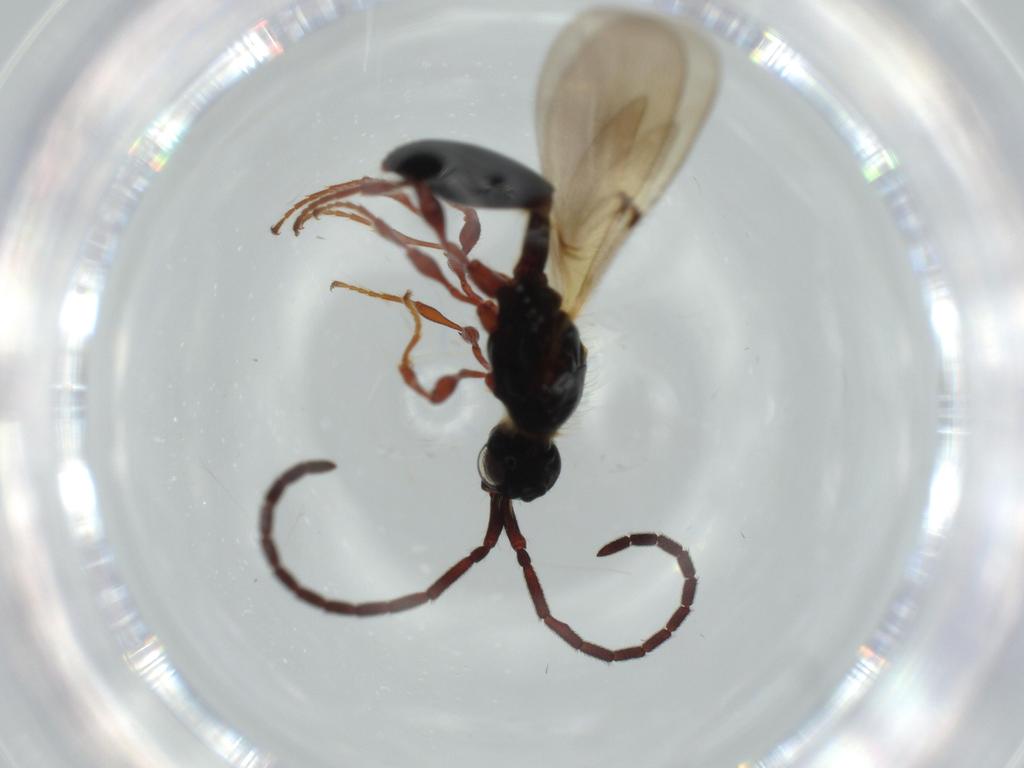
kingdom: Animalia
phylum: Arthropoda
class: Insecta
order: Hymenoptera
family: Diapriidae
